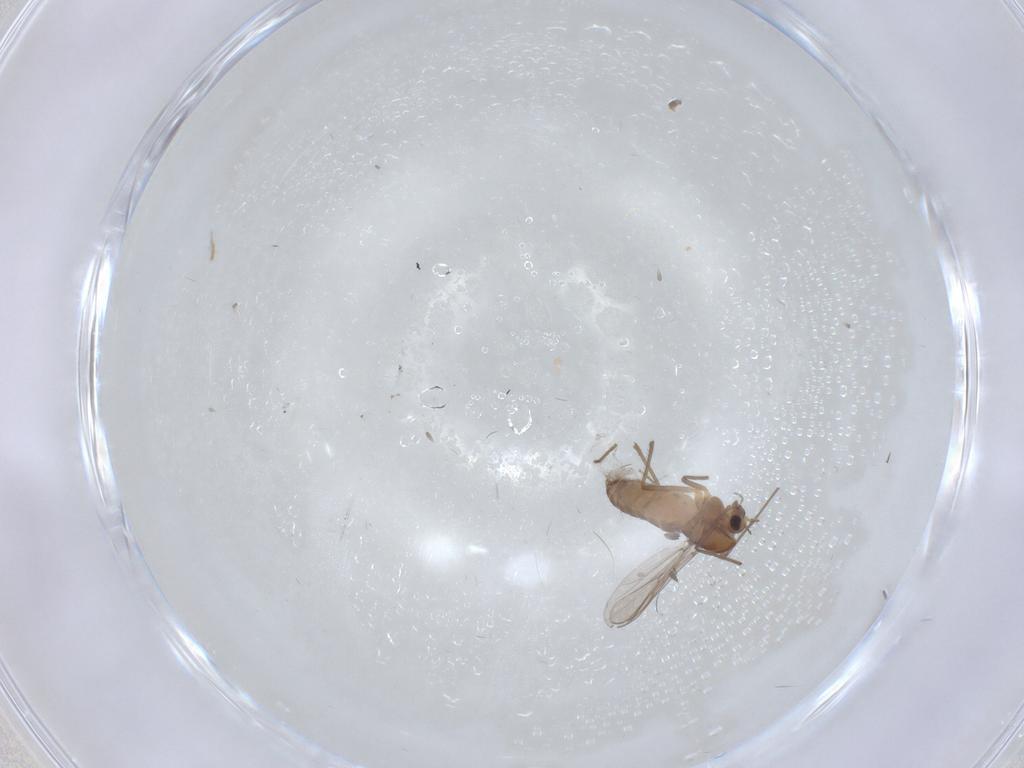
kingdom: Animalia
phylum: Arthropoda
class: Insecta
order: Diptera
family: Chironomidae
